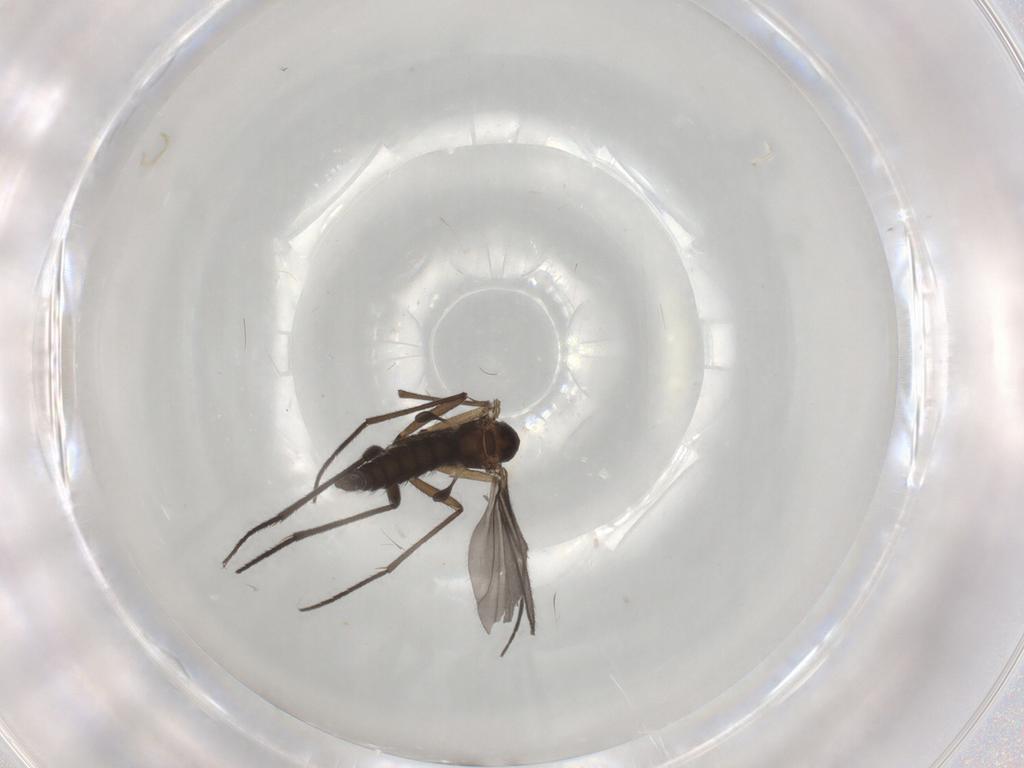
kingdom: Animalia
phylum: Arthropoda
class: Insecta
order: Diptera
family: Sciaridae
